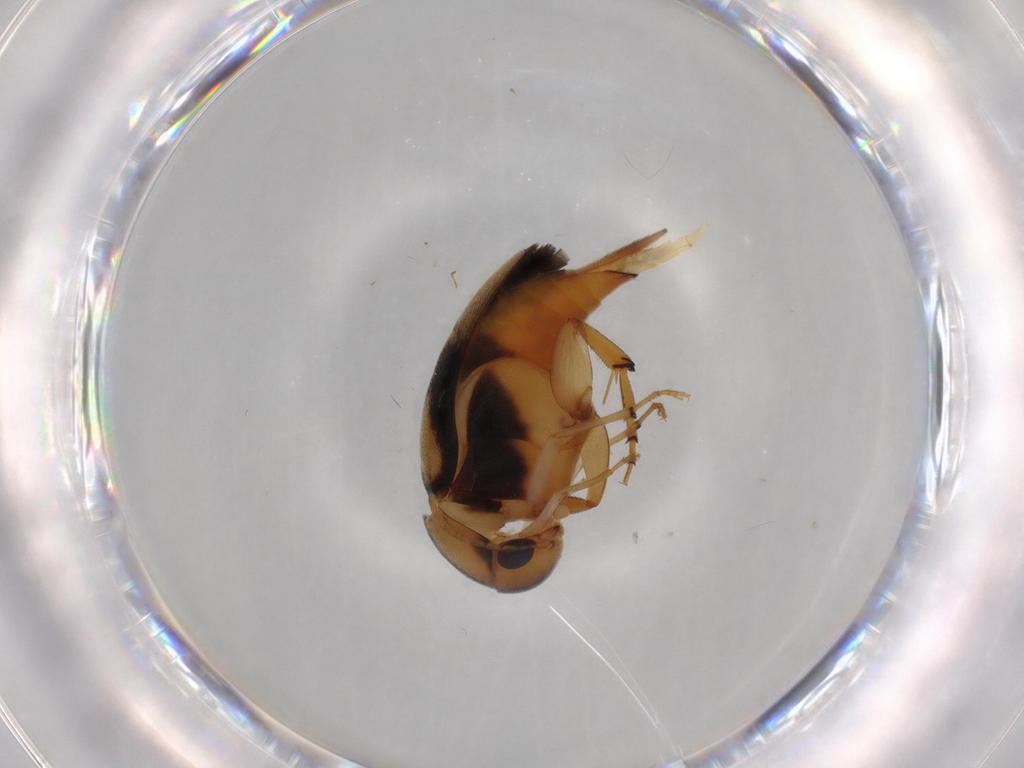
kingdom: Animalia
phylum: Arthropoda
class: Insecta
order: Coleoptera
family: Mordellidae
